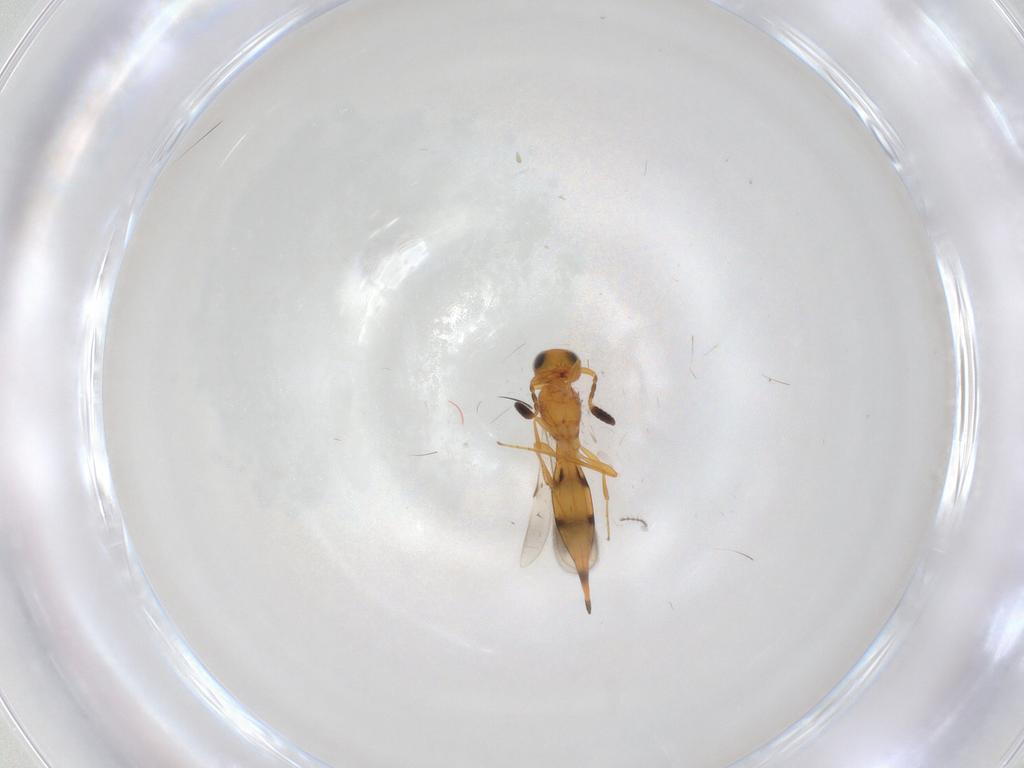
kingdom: Animalia
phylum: Arthropoda
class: Insecta
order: Hymenoptera
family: Scelionidae
